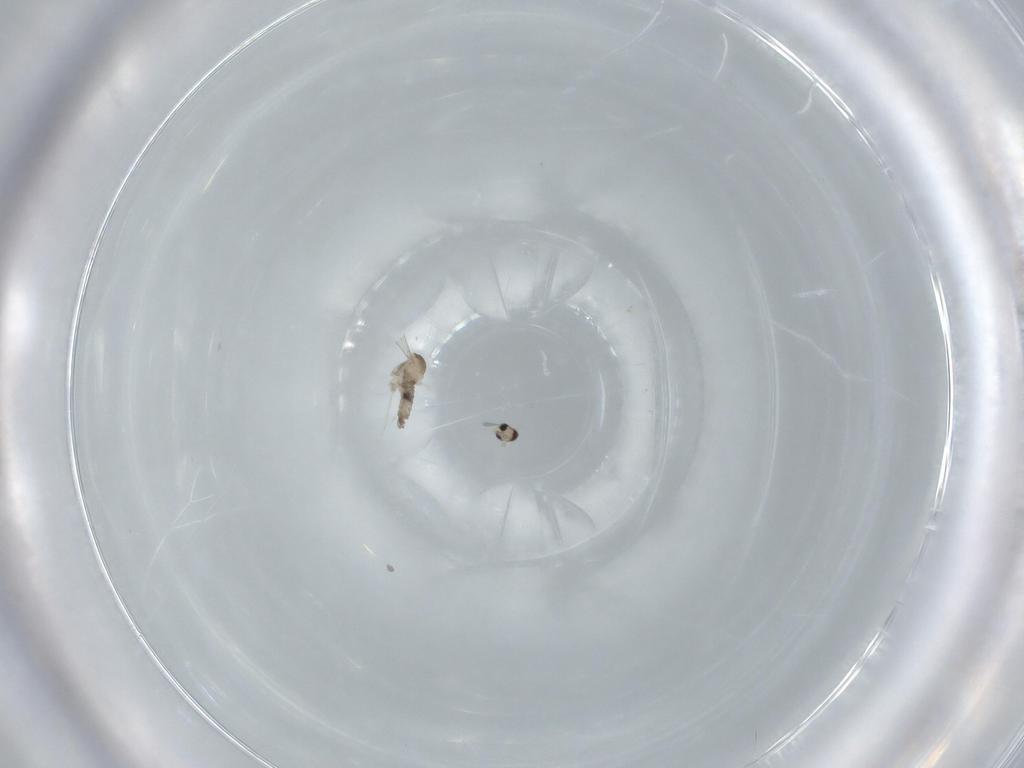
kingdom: Animalia
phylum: Arthropoda
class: Insecta
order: Diptera
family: Cecidomyiidae
